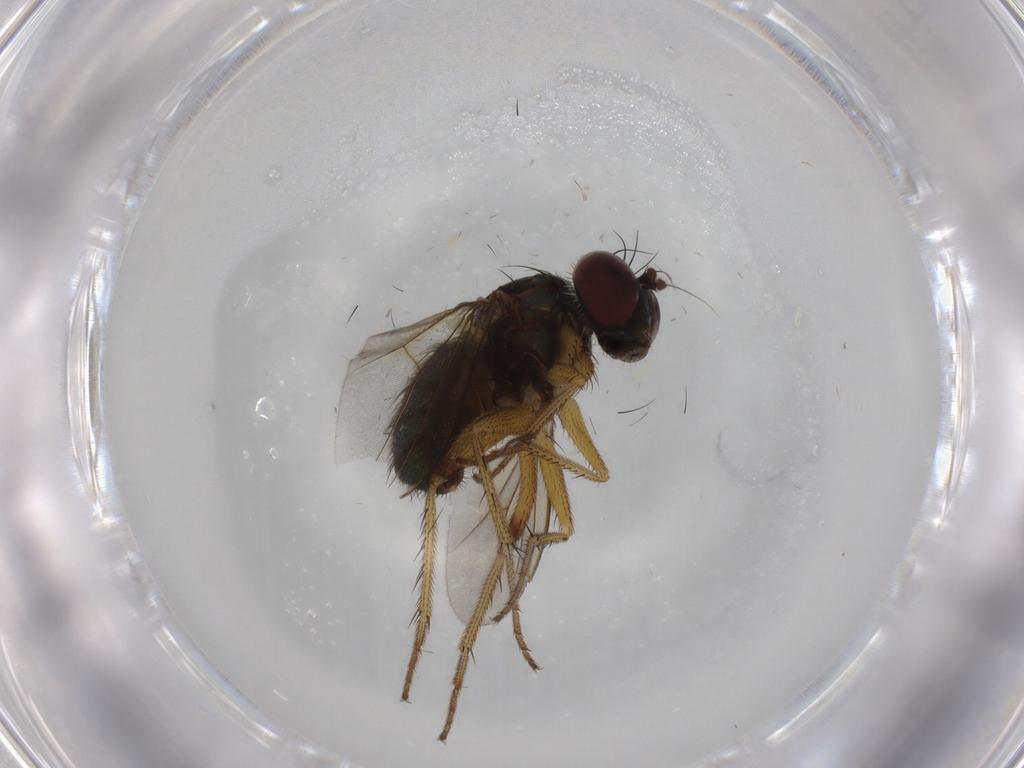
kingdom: Animalia
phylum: Arthropoda
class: Insecta
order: Diptera
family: Dolichopodidae
